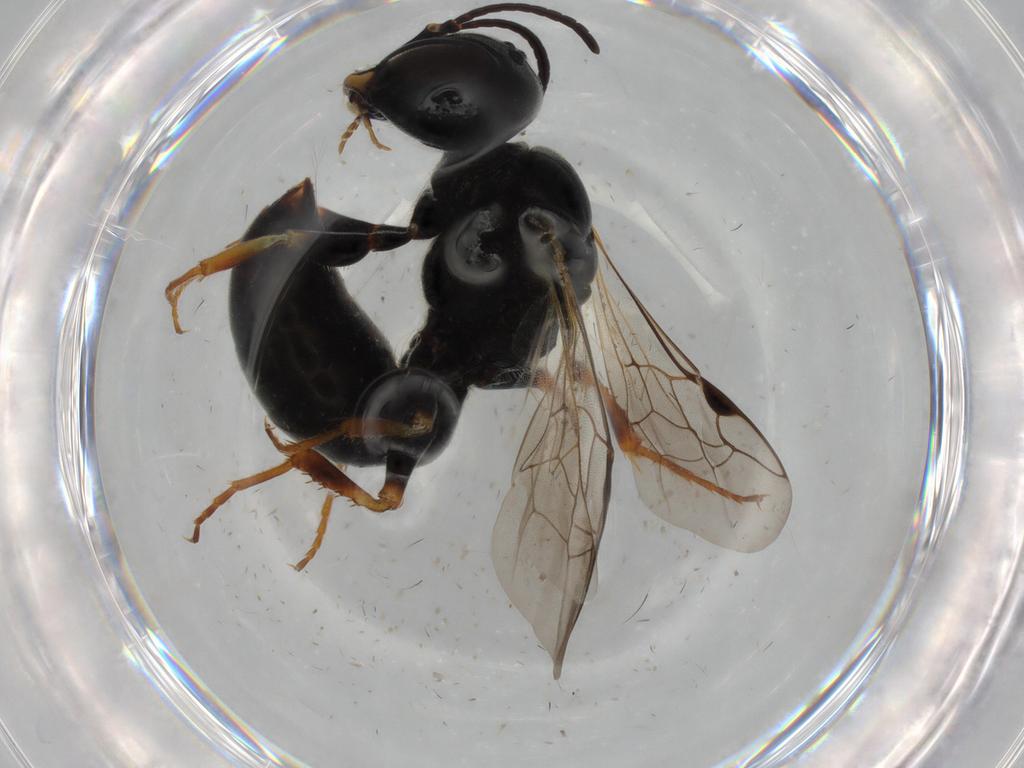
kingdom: Animalia
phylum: Arthropoda
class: Insecta
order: Hymenoptera
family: Crabronidae
